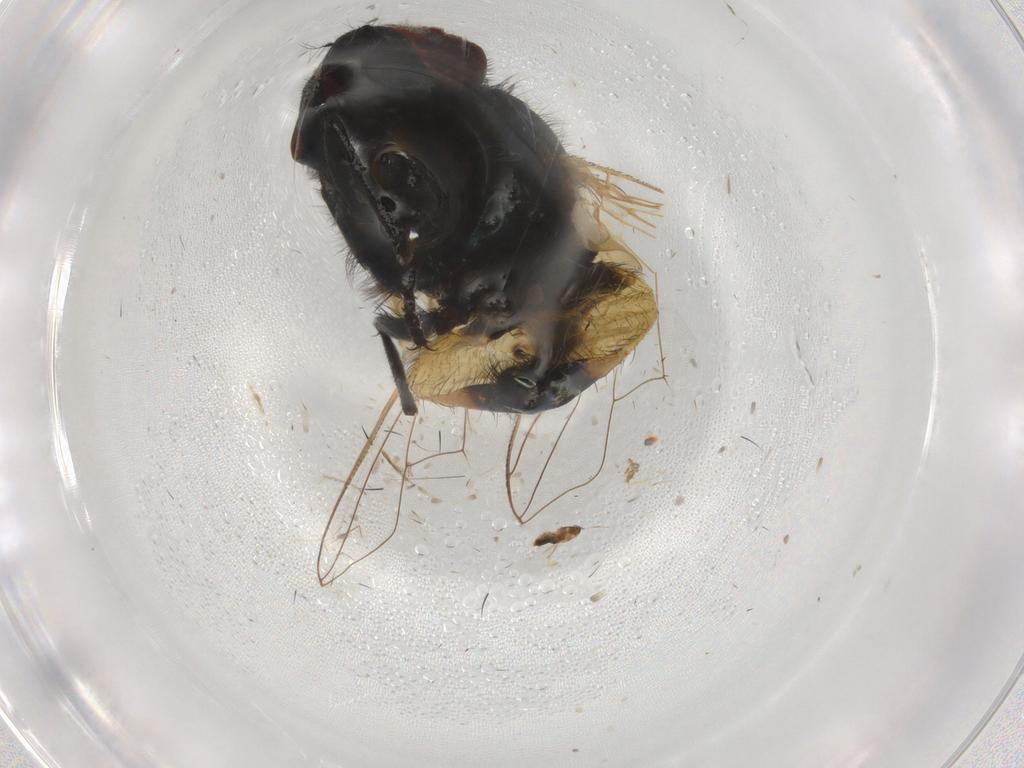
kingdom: Animalia
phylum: Arthropoda
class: Insecta
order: Diptera
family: Muscidae
